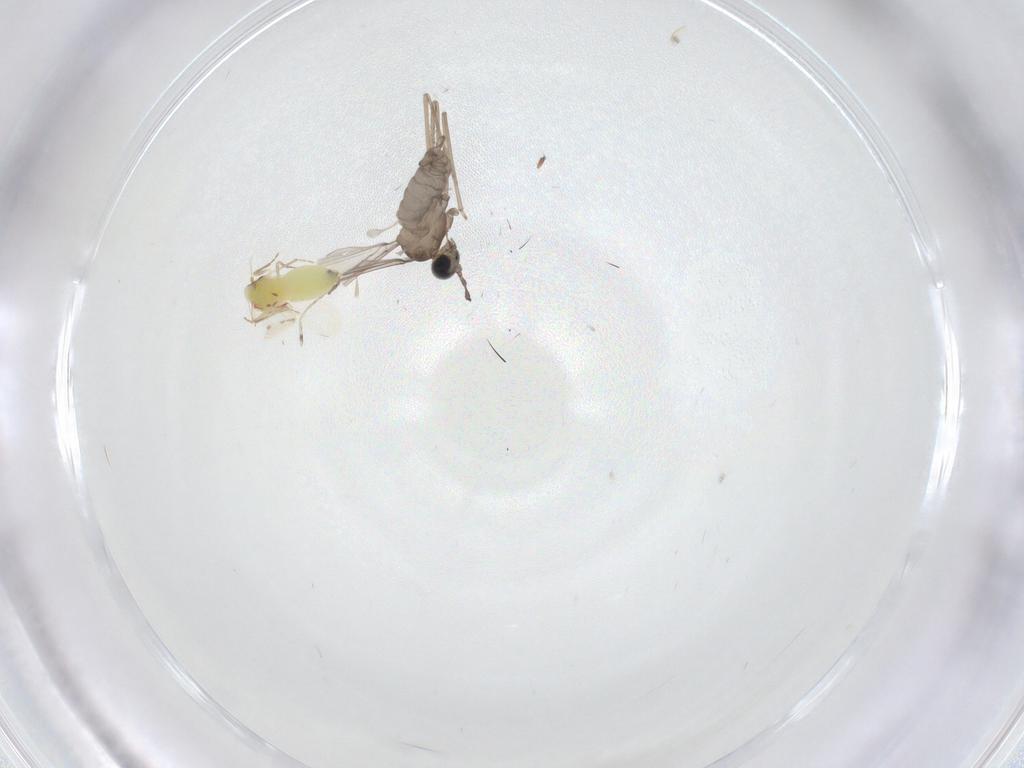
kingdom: Animalia
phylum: Arthropoda
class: Insecta
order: Diptera
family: Cecidomyiidae
